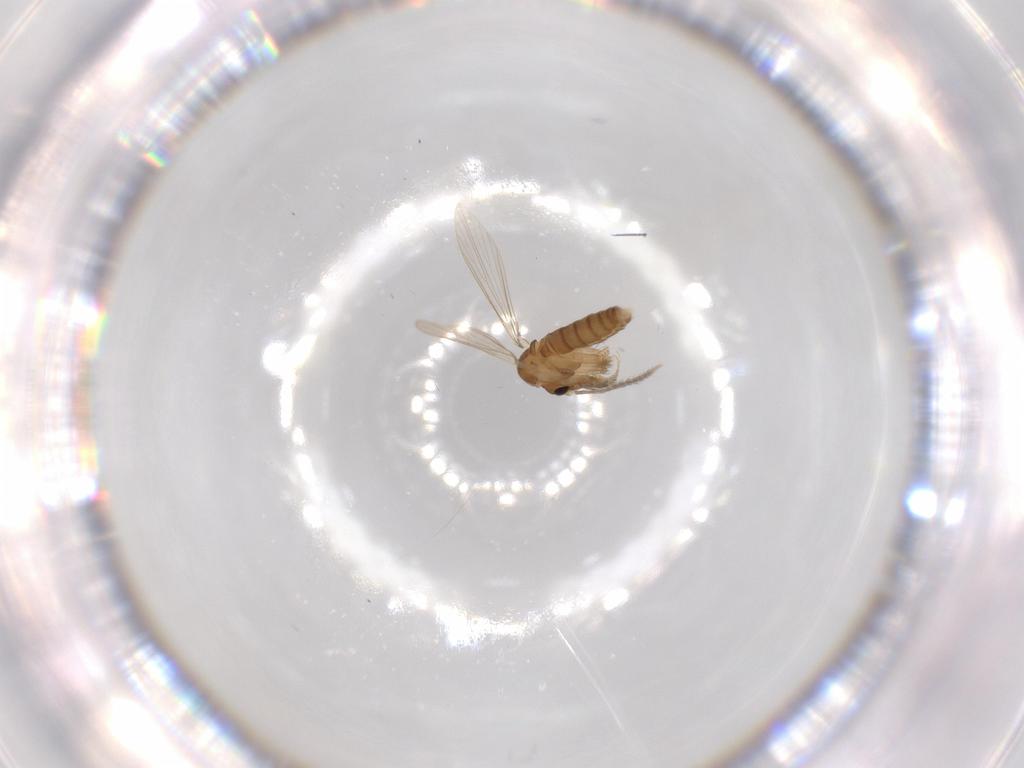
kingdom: Animalia
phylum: Arthropoda
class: Insecta
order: Diptera
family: Psychodidae
